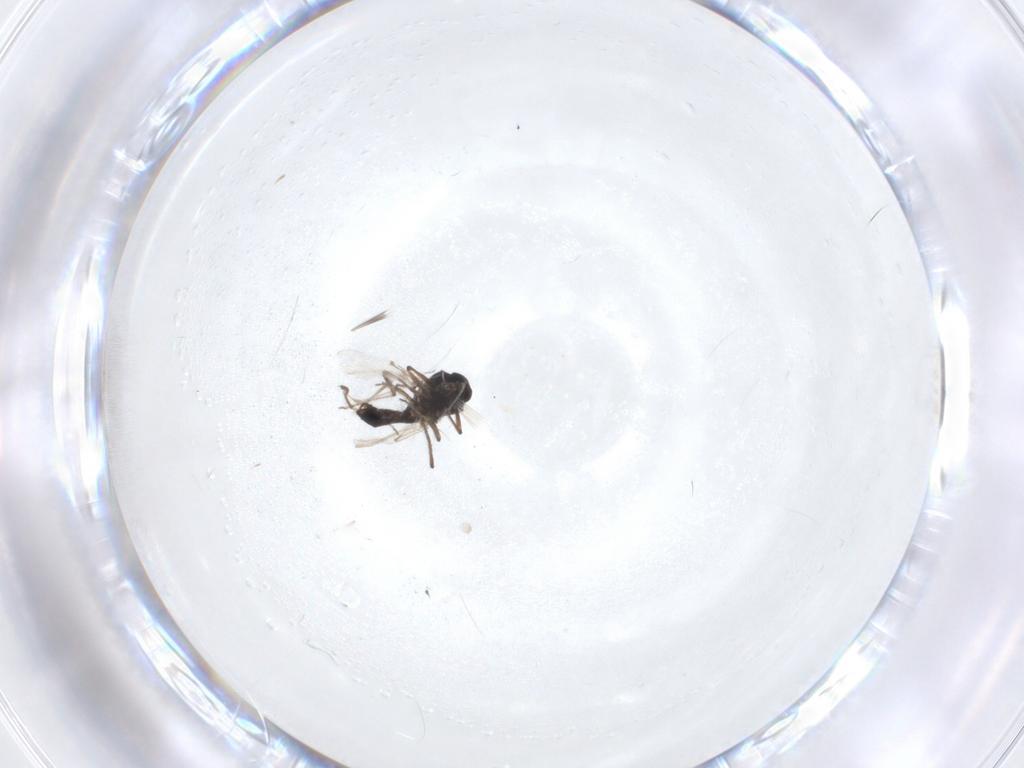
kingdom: Animalia
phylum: Arthropoda
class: Insecta
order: Diptera
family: Ceratopogonidae
